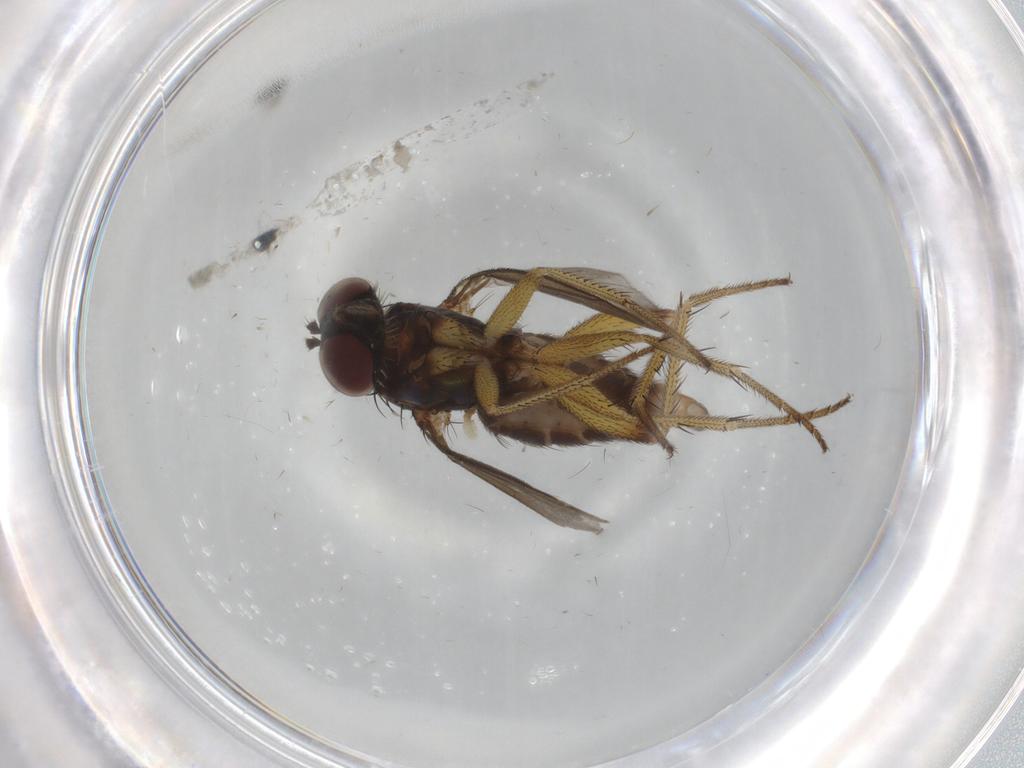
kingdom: Animalia
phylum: Arthropoda
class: Insecta
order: Diptera
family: Dolichopodidae
